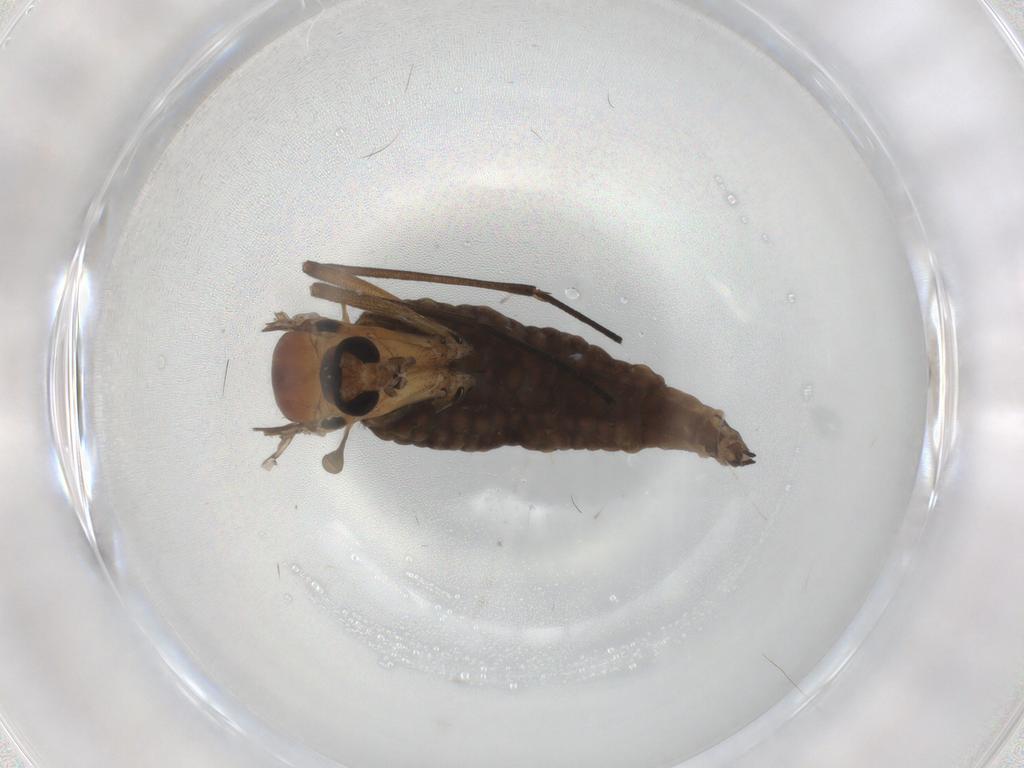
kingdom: Animalia
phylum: Arthropoda
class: Insecta
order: Diptera
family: Sciaridae
